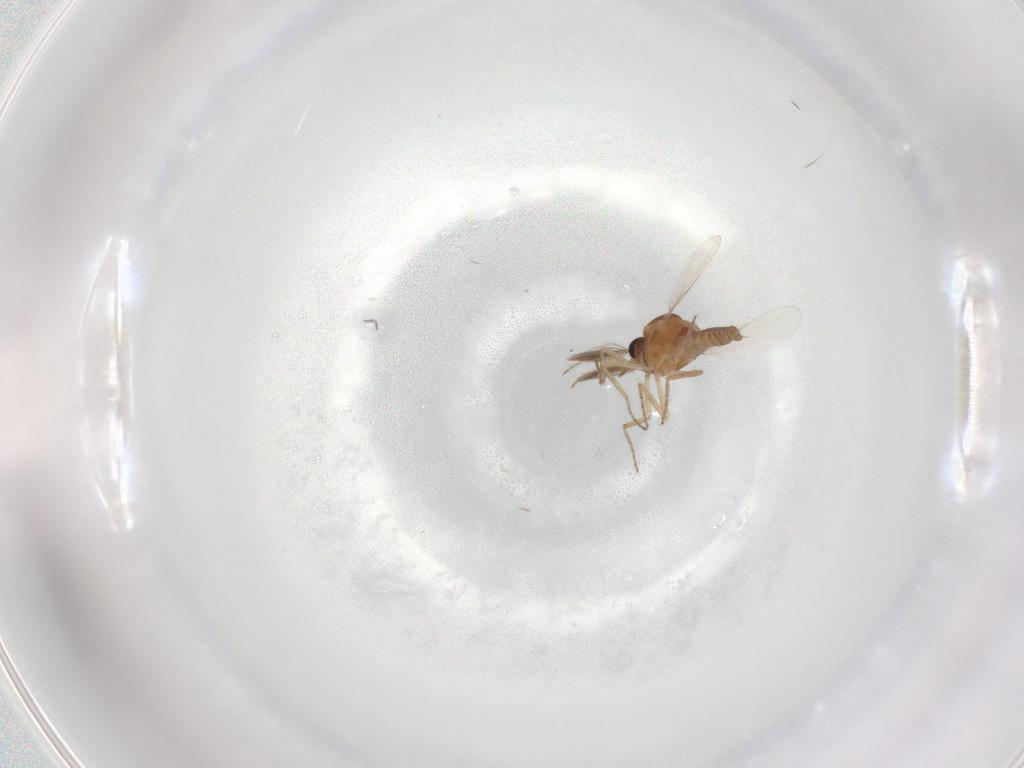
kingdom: Animalia
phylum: Arthropoda
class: Insecta
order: Diptera
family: Ceratopogonidae
